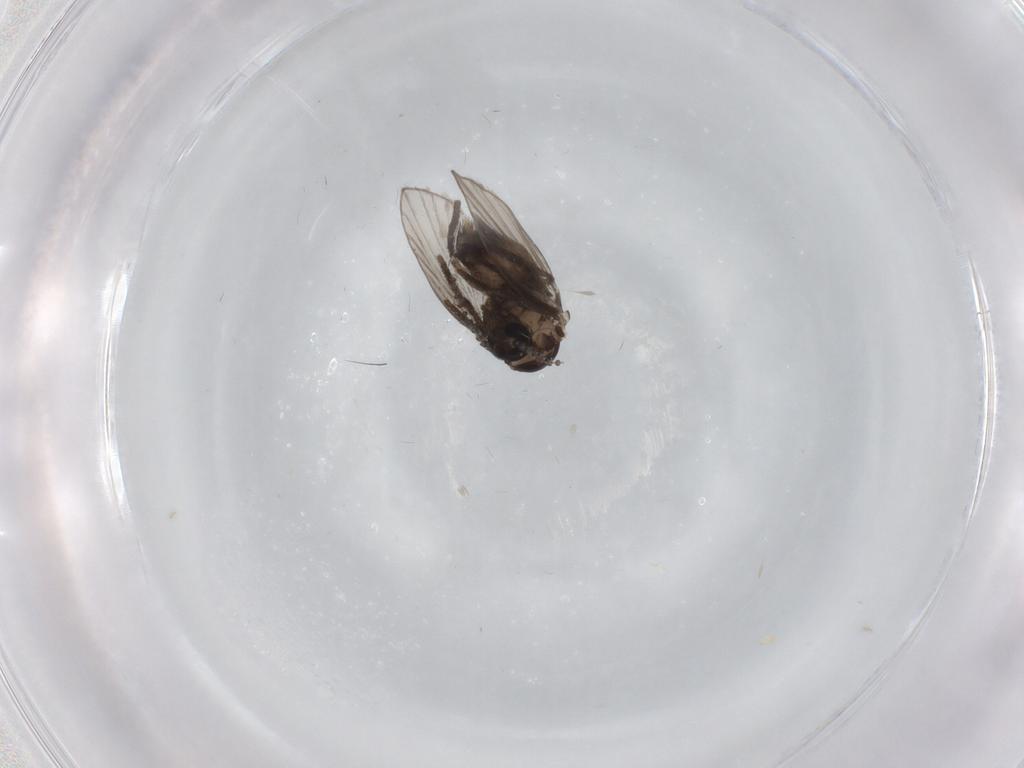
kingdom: Animalia
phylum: Arthropoda
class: Insecta
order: Diptera
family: Psychodidae
